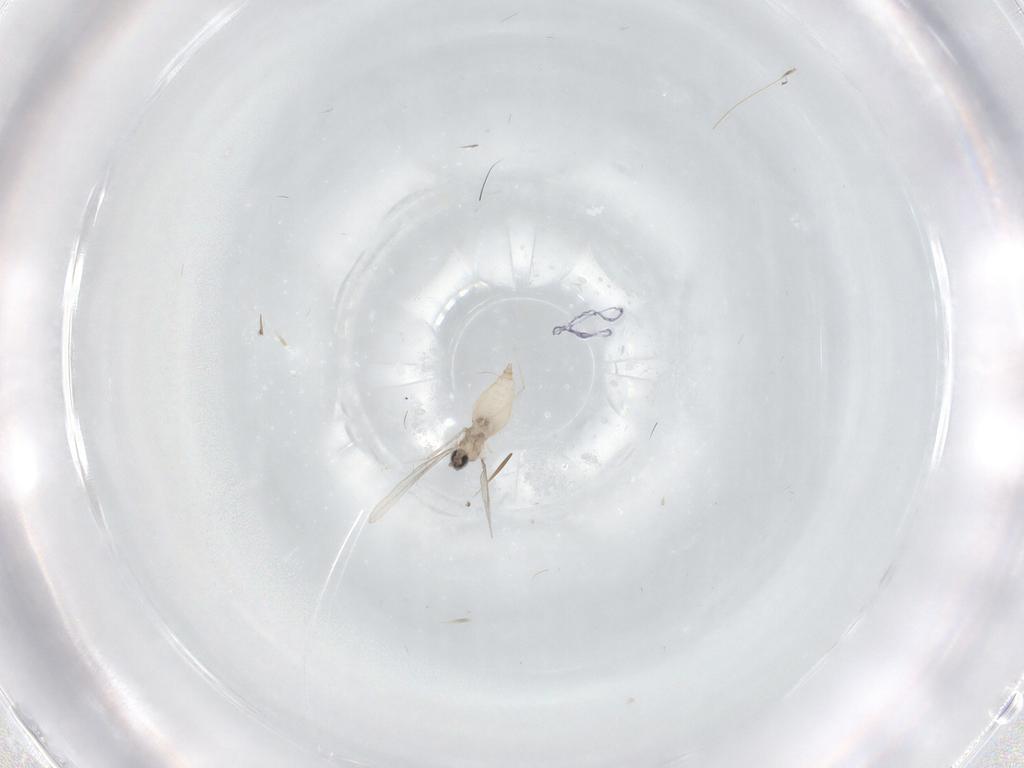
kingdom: Animalia
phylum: Arthropoda
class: Insecta
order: Diptera
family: Cecidomyiidae
